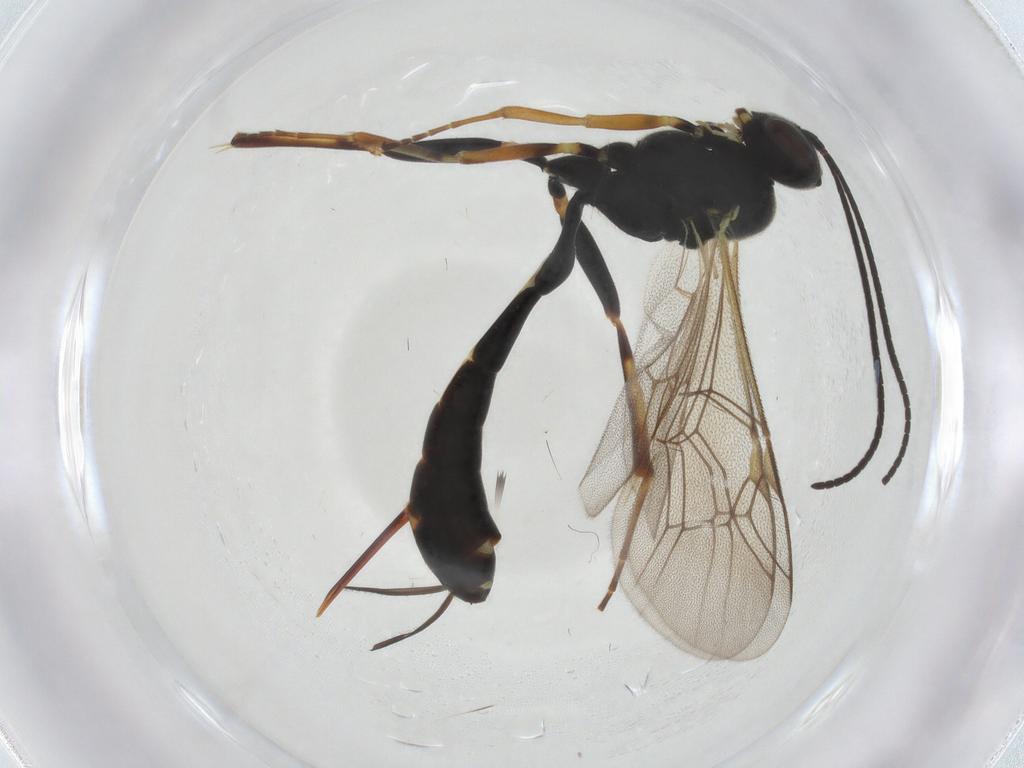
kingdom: Animalia
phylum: Arthropoda
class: Insecta
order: Hymenoptera
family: Ichneumonidae
